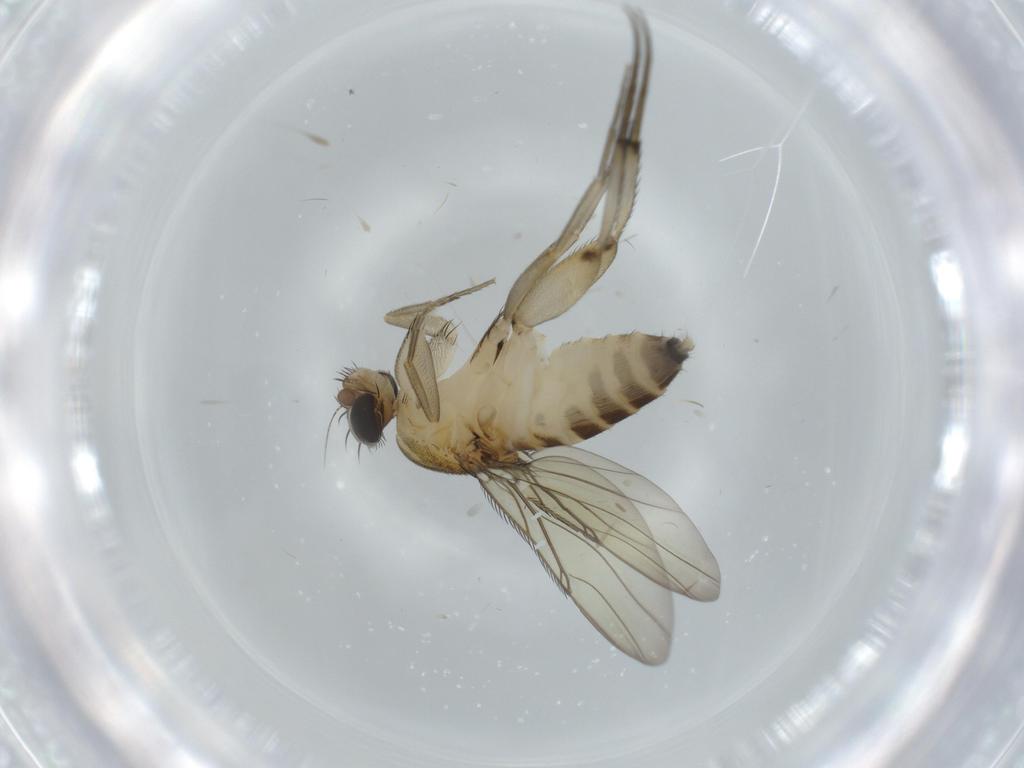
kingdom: Animalia
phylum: Arthropoda
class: Insecta
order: Diptera
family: Phoridae
